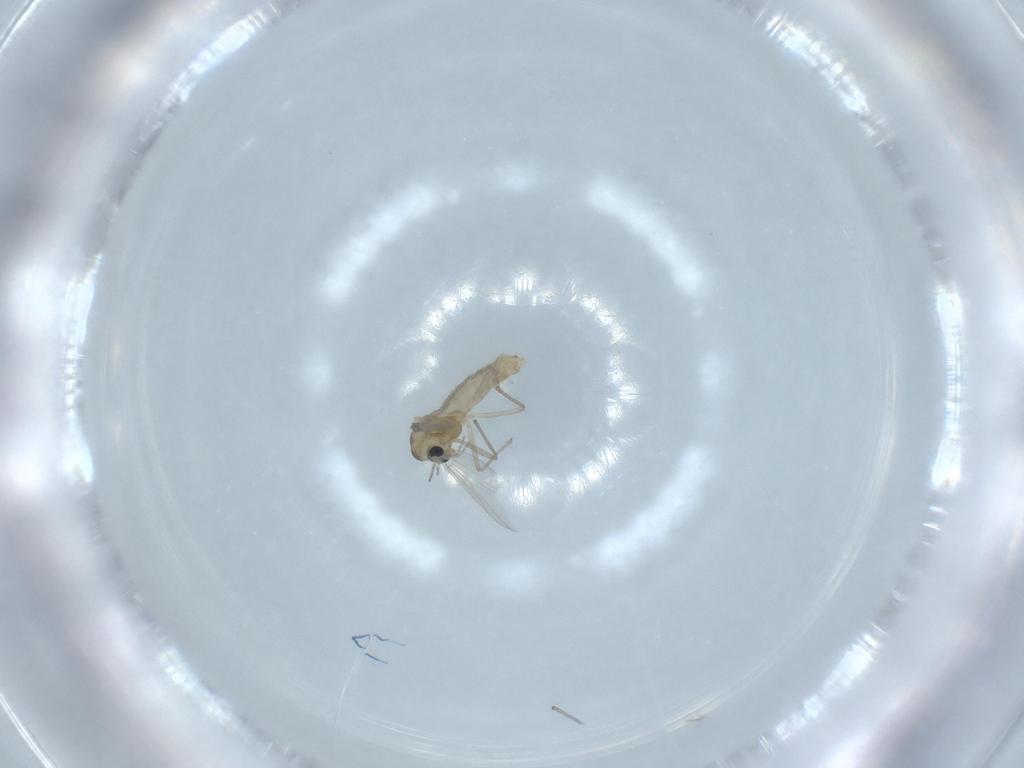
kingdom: Animalia
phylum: Arthropoda
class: Insecta
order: Diptera
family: Chironomidae
